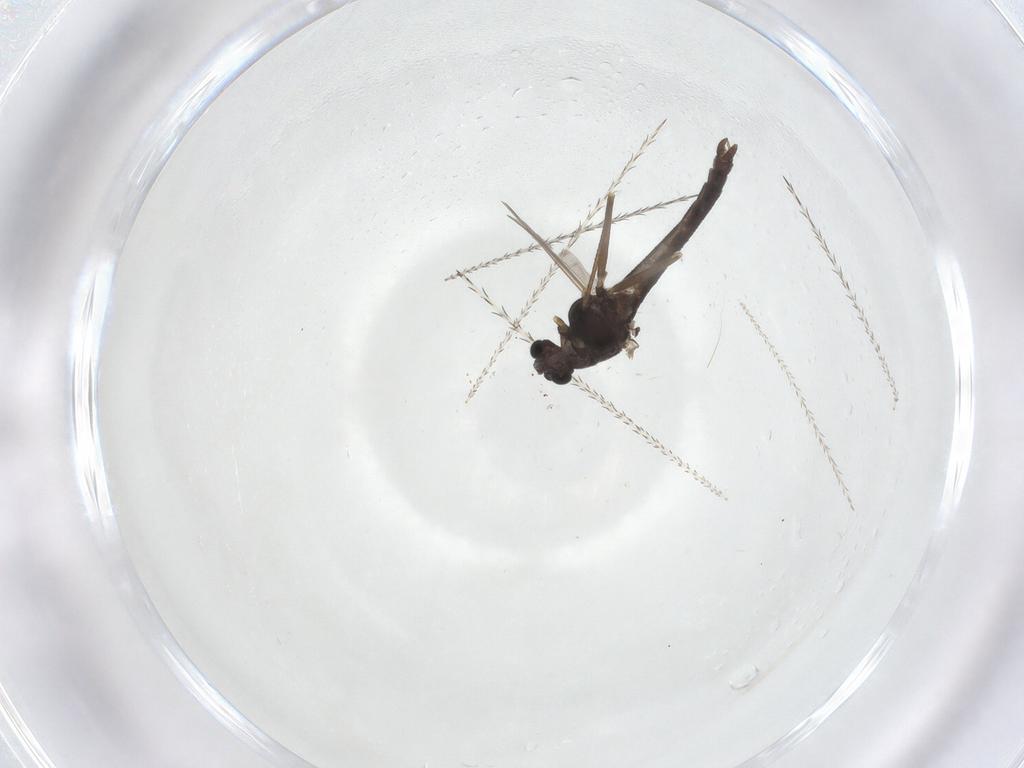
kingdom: Animalia
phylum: Arthropoda
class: Insecta
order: Diptera
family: Chironomidae
